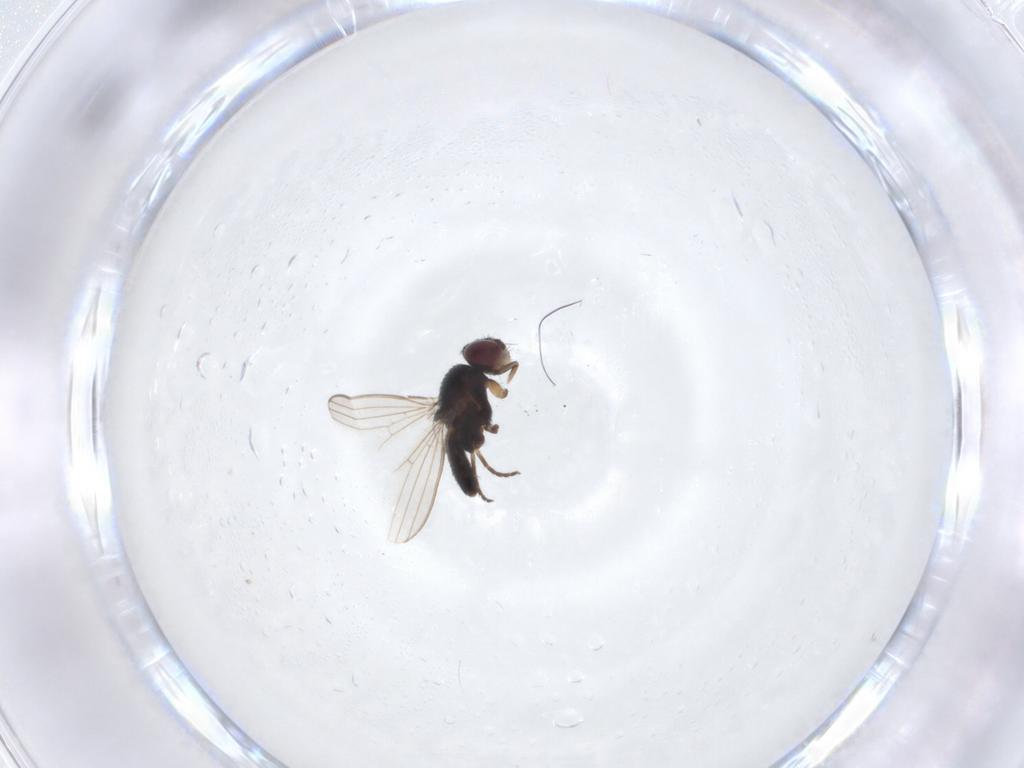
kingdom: Animalia
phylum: Arthropoda
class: Insecta
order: Diptera
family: Milichiidae
